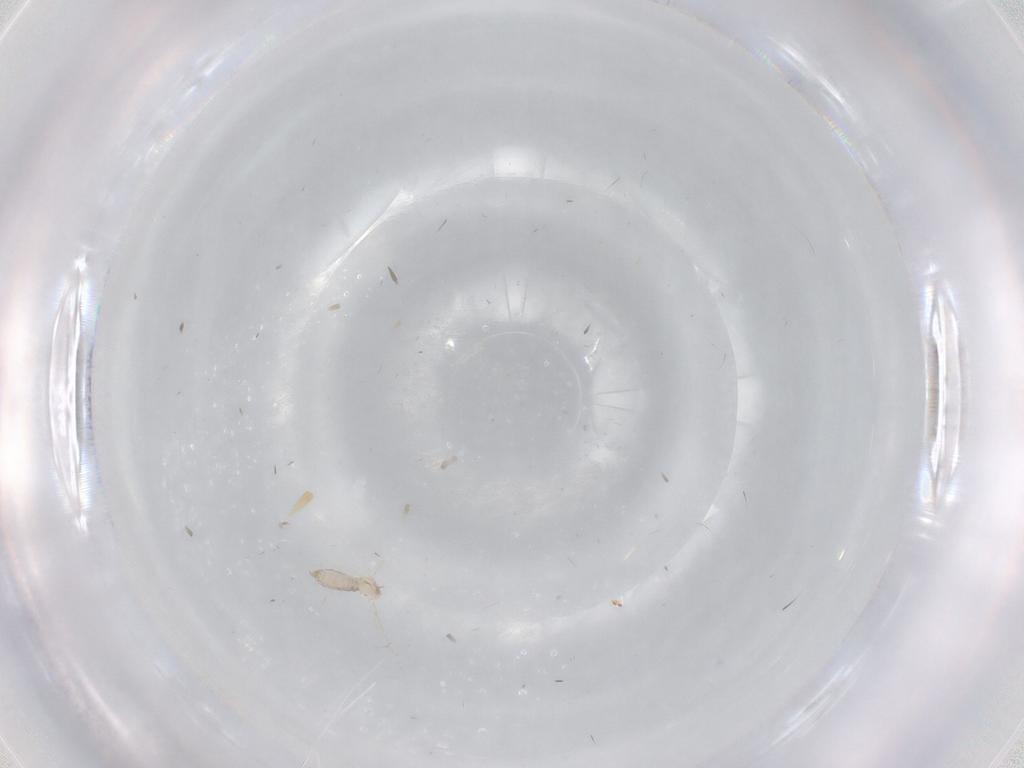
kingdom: Animalia
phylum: Arthropoda
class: Insecta
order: Diptera
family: Cecidomyiidae
